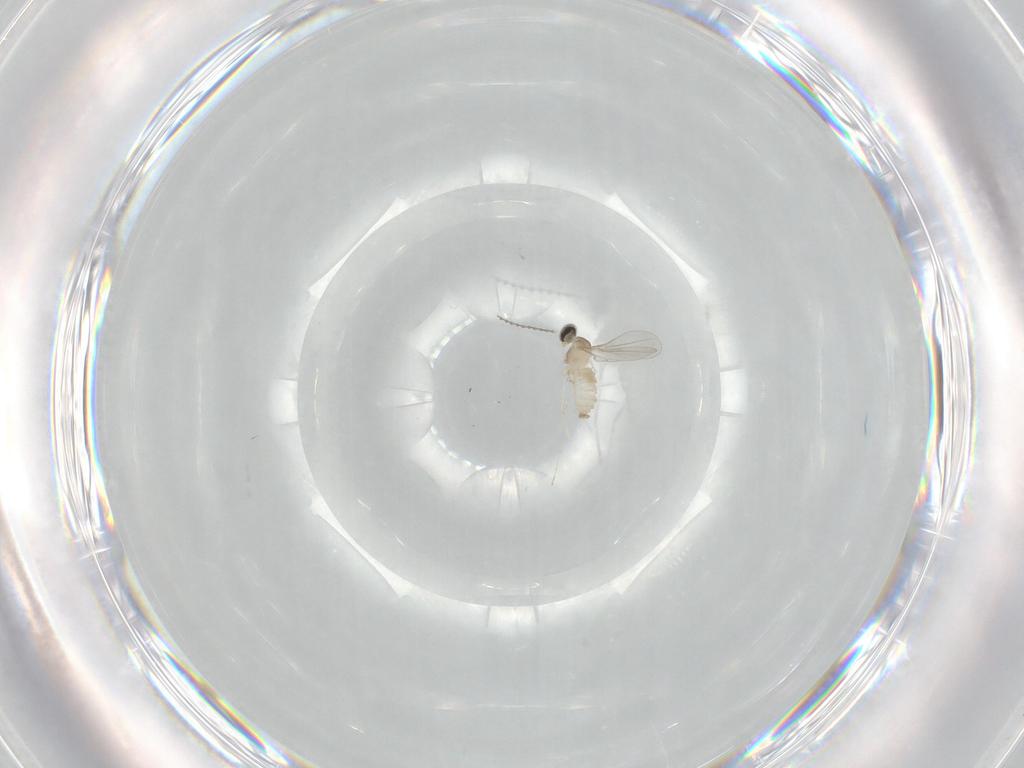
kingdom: Animalia
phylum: Arthropoda
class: Insecta
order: Diptera
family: Cecidomyiidae
